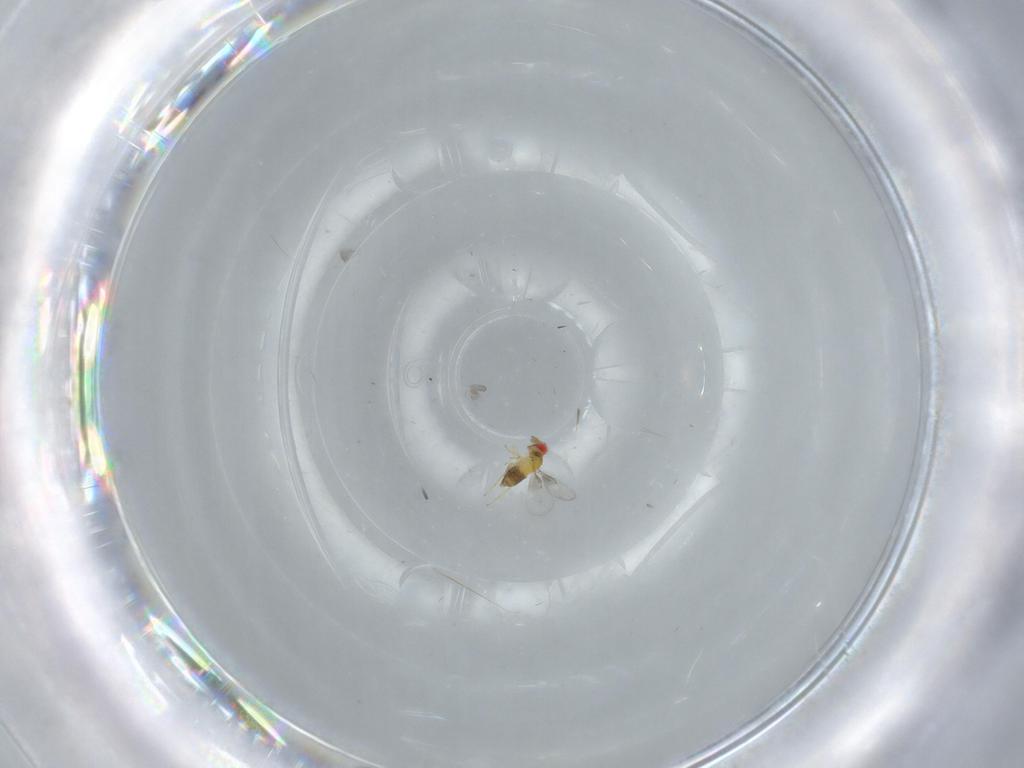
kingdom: Animalia
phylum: Arthropoda
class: Insecta
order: Hymenoptera
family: Trichogrammatidae
